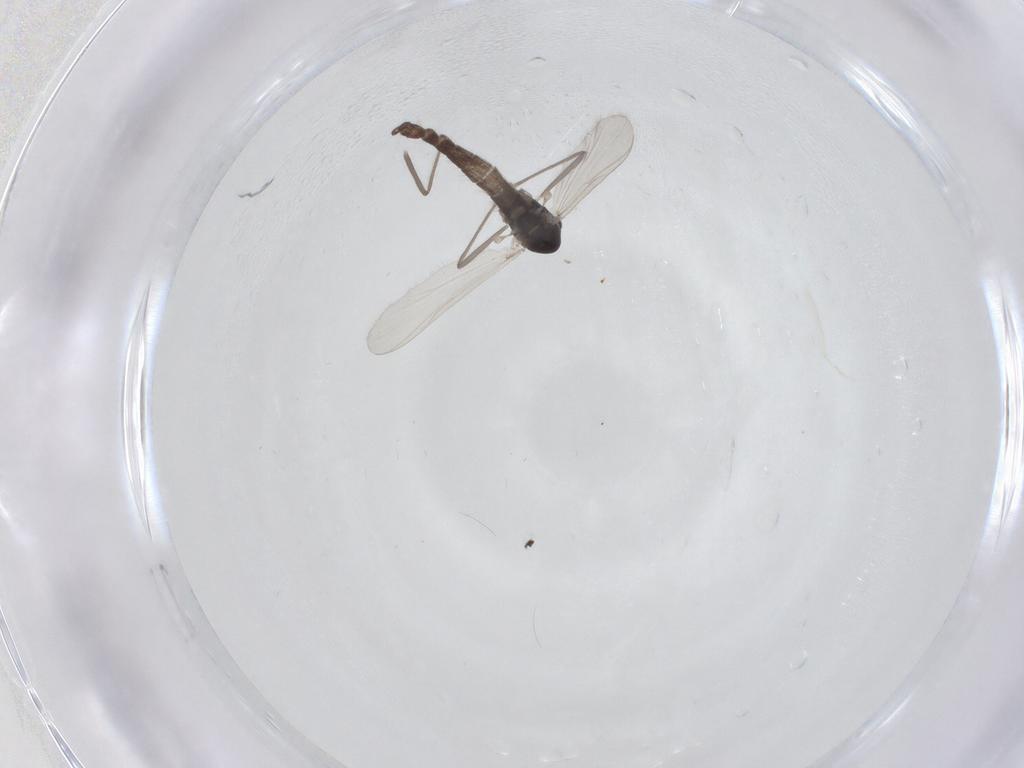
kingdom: Animalia
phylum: Arthropoda
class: Insecta
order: Diptera
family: Chironomidae
